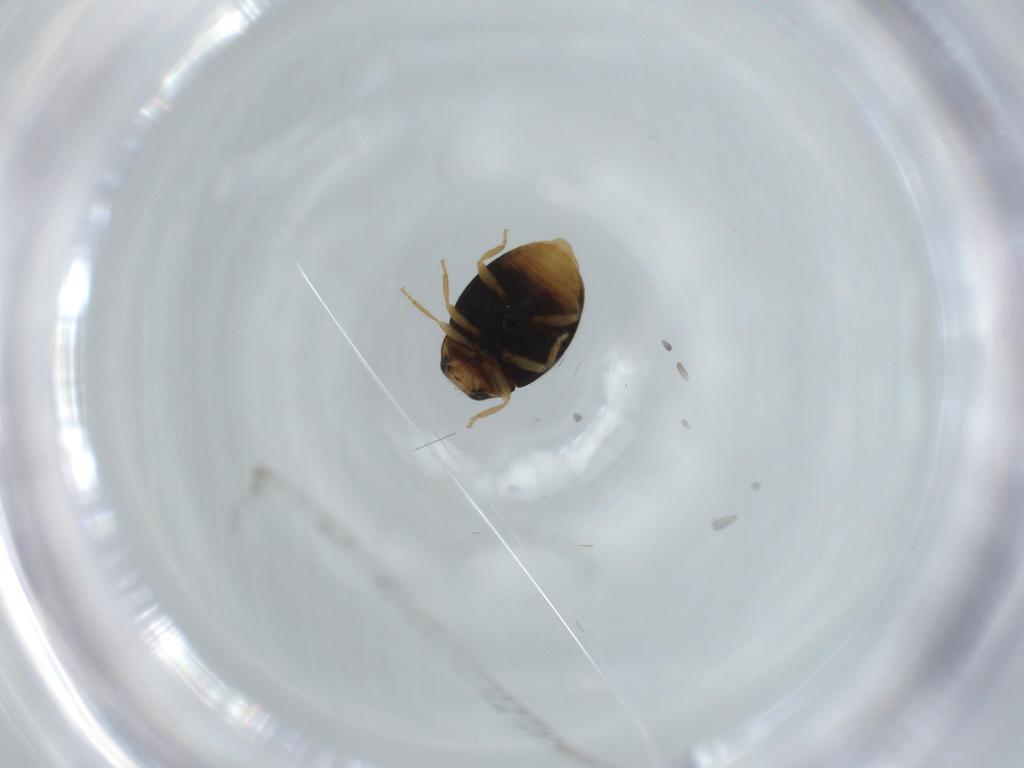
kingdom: Animalia
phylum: Arthropoda
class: Insecta
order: Coleoptera
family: Coccinellidae
